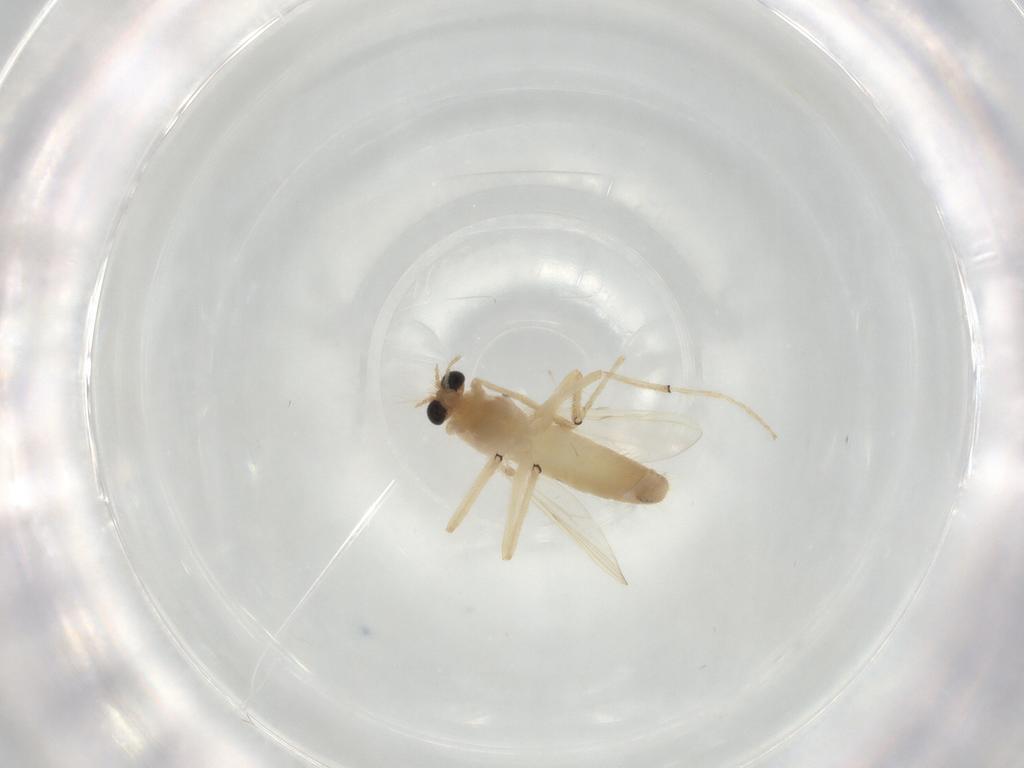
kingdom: Animalia
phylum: Arthropoda
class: Insecta
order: Diptera
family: Chironomidae
